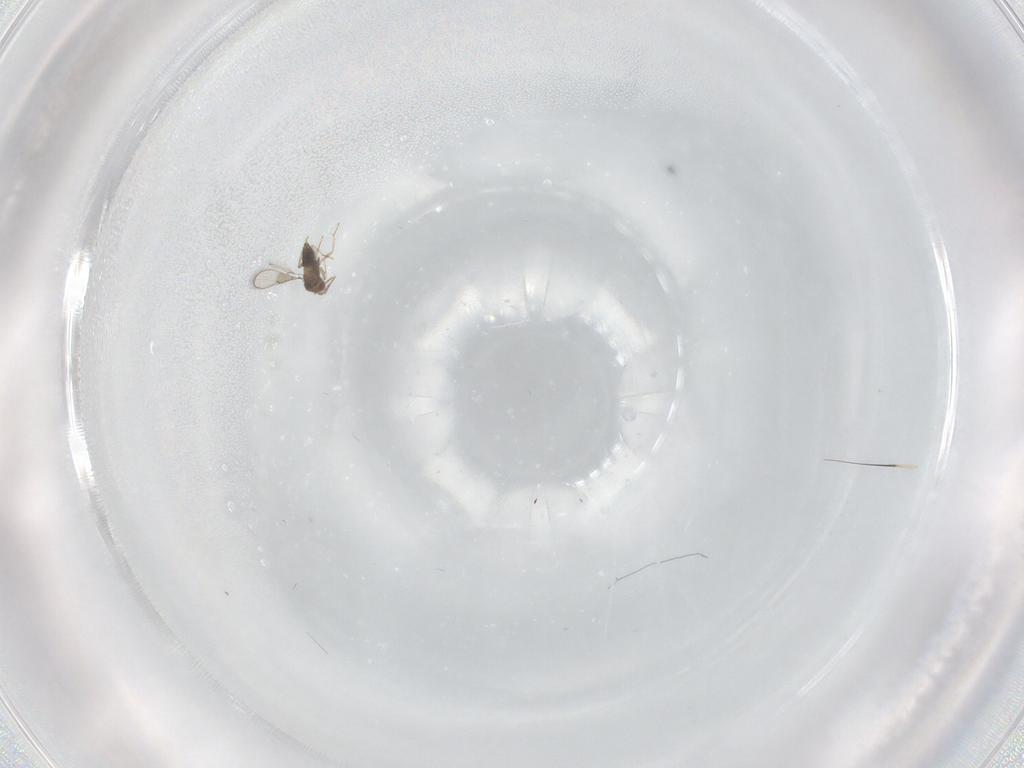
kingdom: Animalia
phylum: Arthropoda
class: Insecta
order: Hymenoptera
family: Trichogrammatidae
